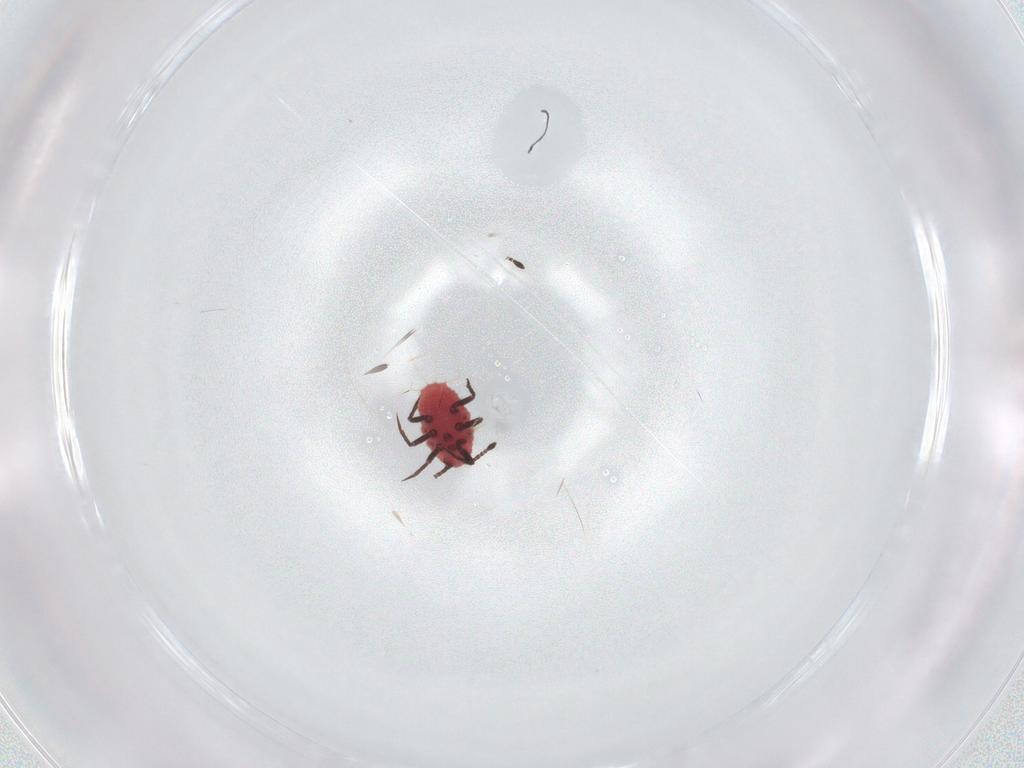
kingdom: Animalia
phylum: Arthropoda
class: Insecta
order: Hemiptera
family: Monophlebidae
